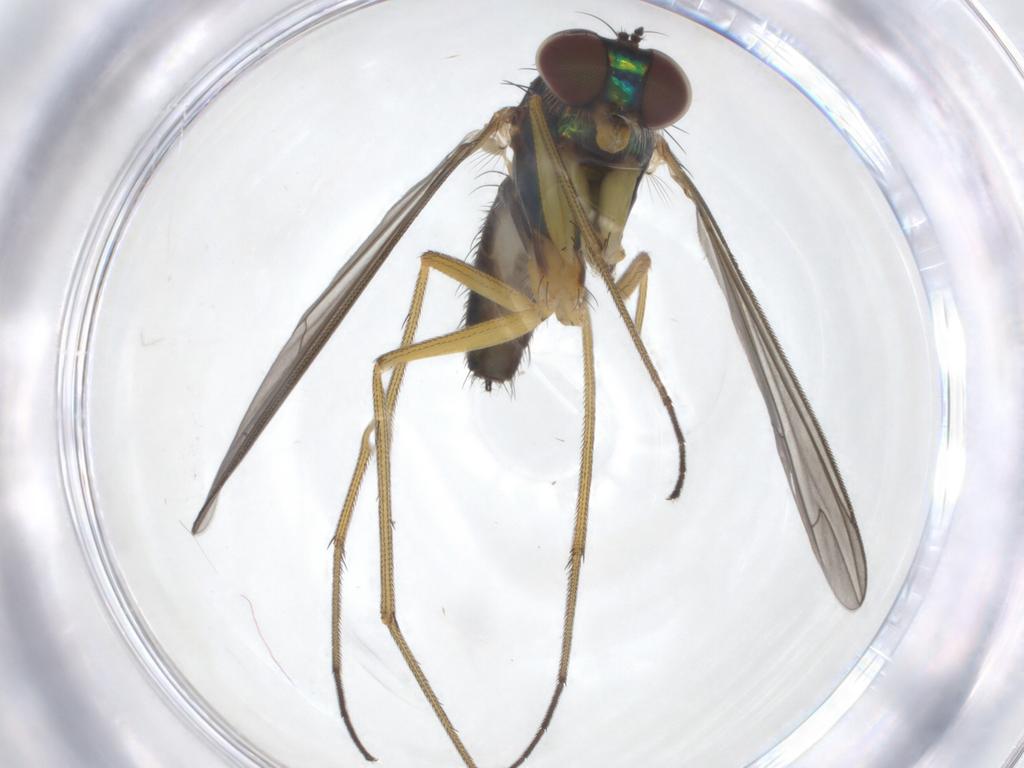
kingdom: Animalia
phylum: Arthropoda
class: Insecta
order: Diptera
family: Dolichopodidae
